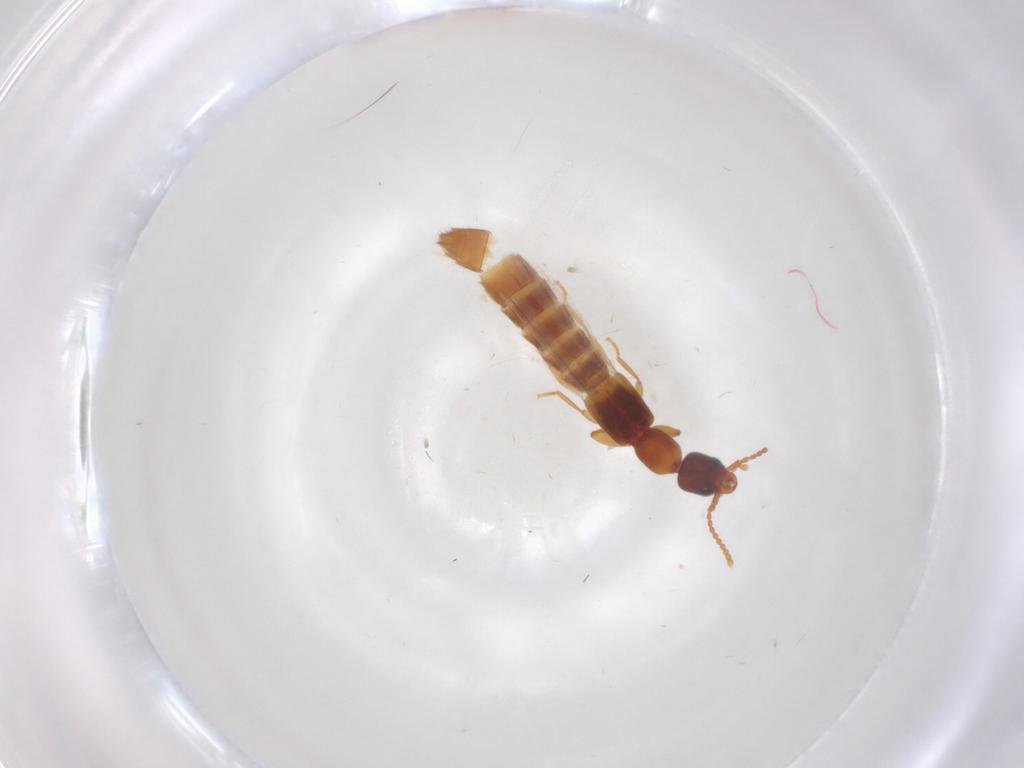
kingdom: Animalia
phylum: Arthropoda
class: Insecta
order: Coleoptera
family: Staphylinidae
